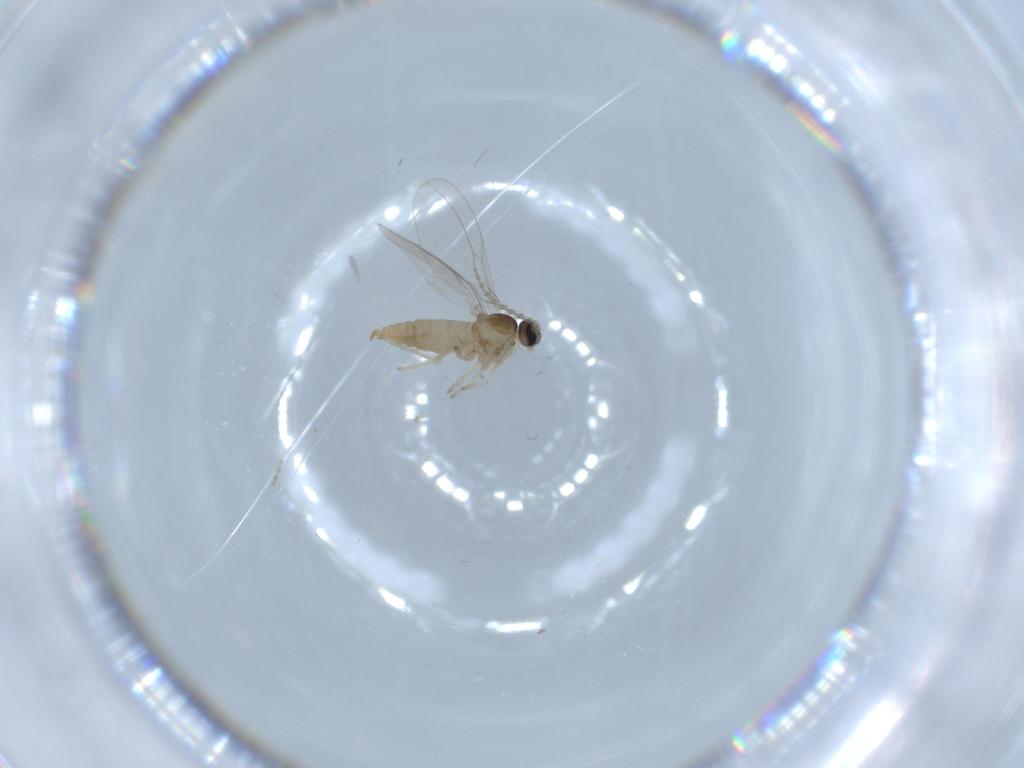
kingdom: Animalia
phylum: Arthropoda
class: Insecta
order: Diptera
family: Cecidomyiidae
